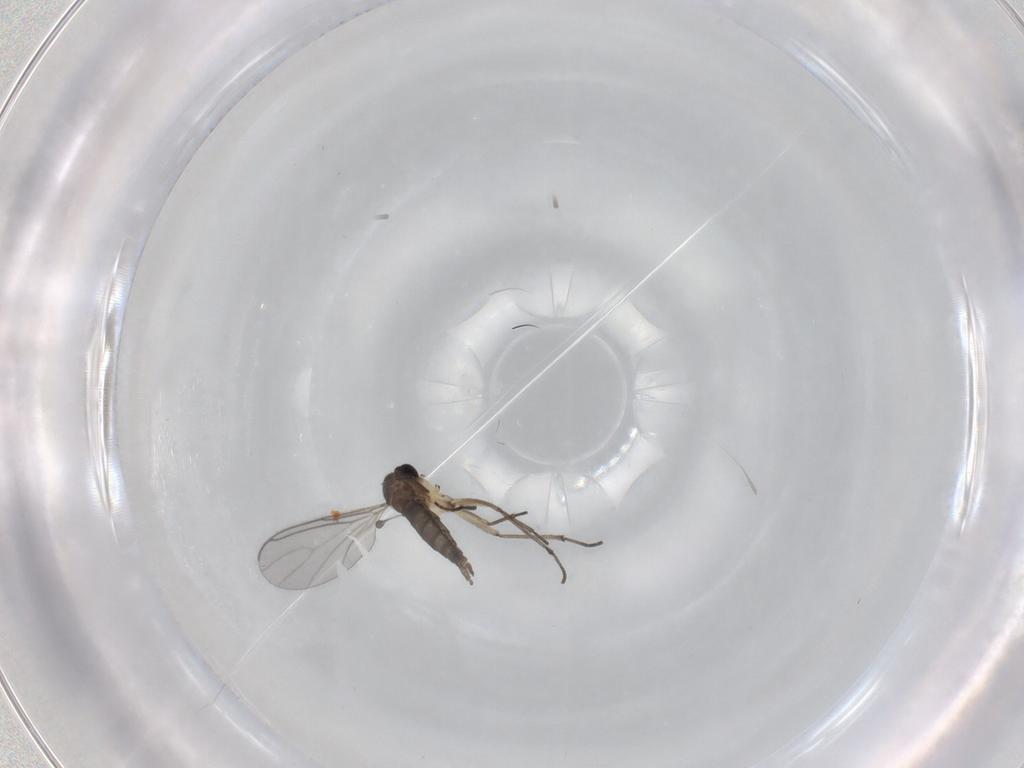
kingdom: Animalia
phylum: Arthropoda
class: Insecta
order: Diptera
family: Sciaridae
